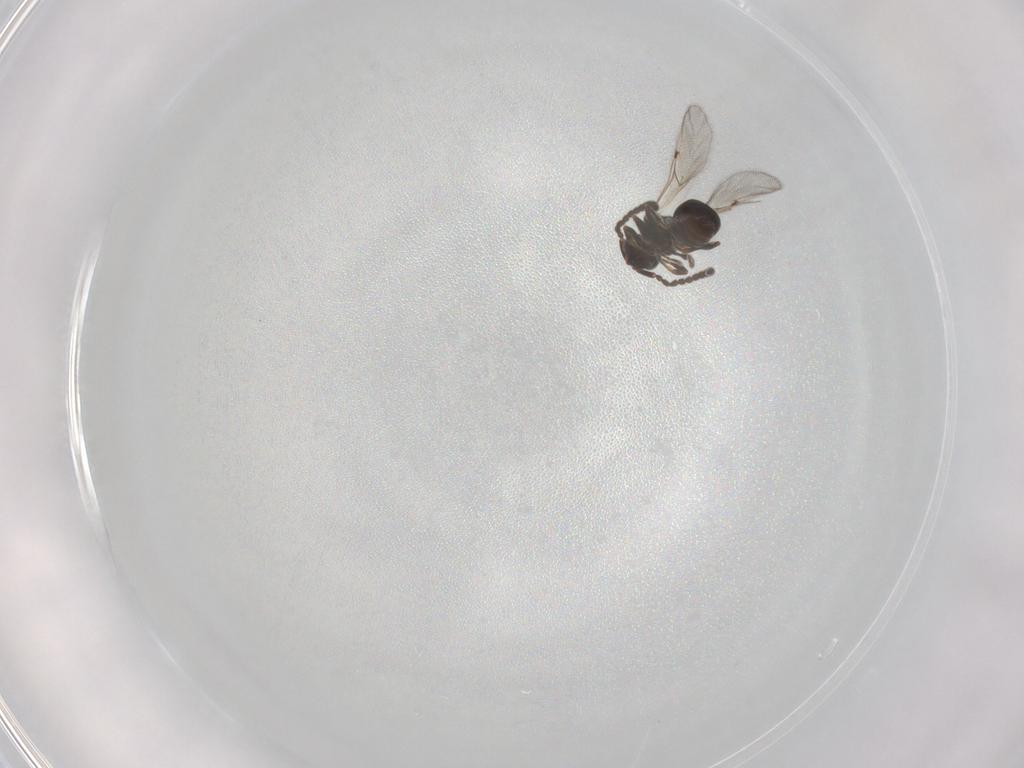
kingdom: Animalia
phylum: Arthropoda
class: Insecta
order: Hymenoptera
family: Diapriidae
